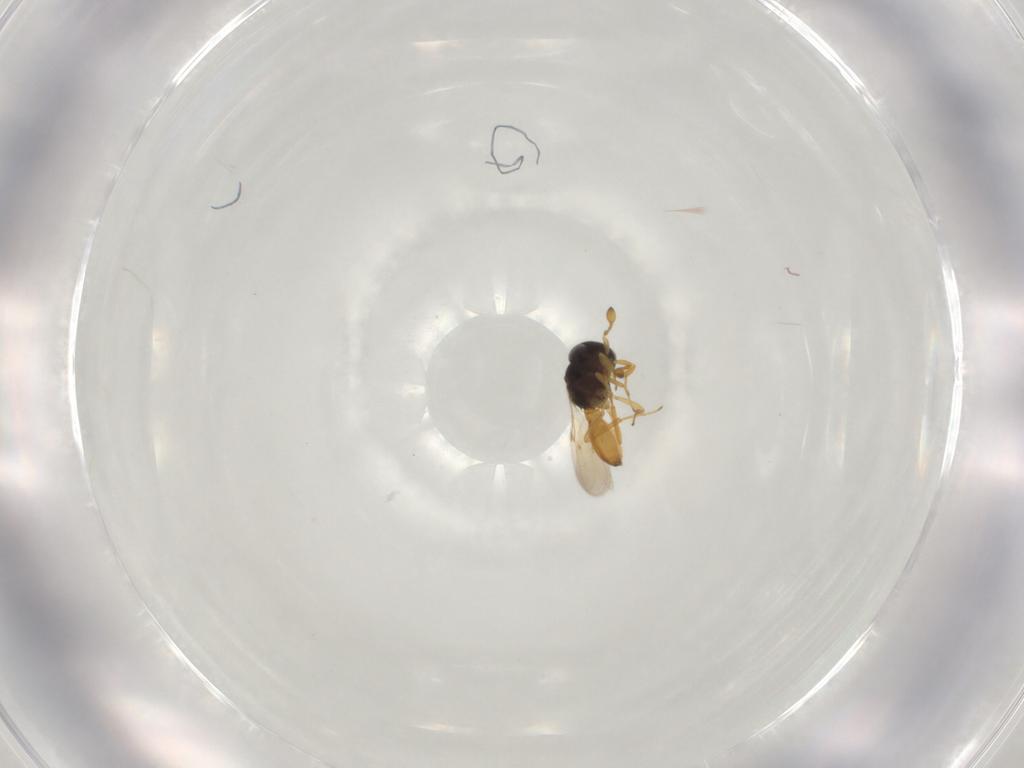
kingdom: Animalia
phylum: Arthropoda
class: Insecta
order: Hymenoptera
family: Scelionidae
